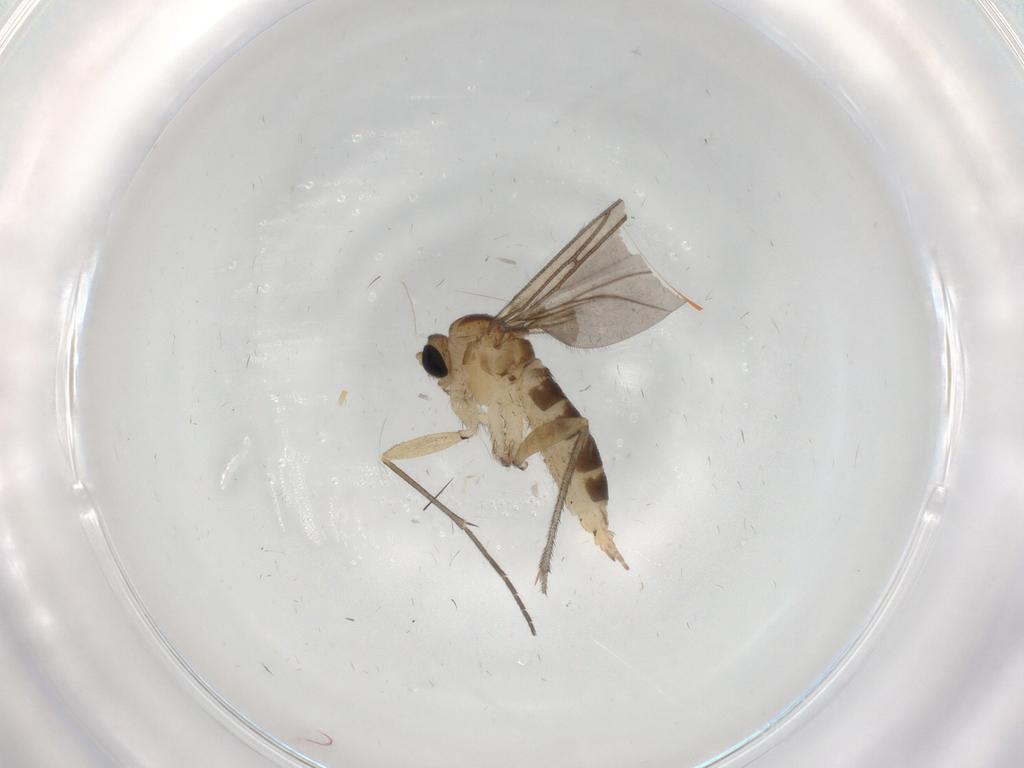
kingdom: Animalia
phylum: Arthropoda
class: Insecta
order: Diptera
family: Sciaridae
